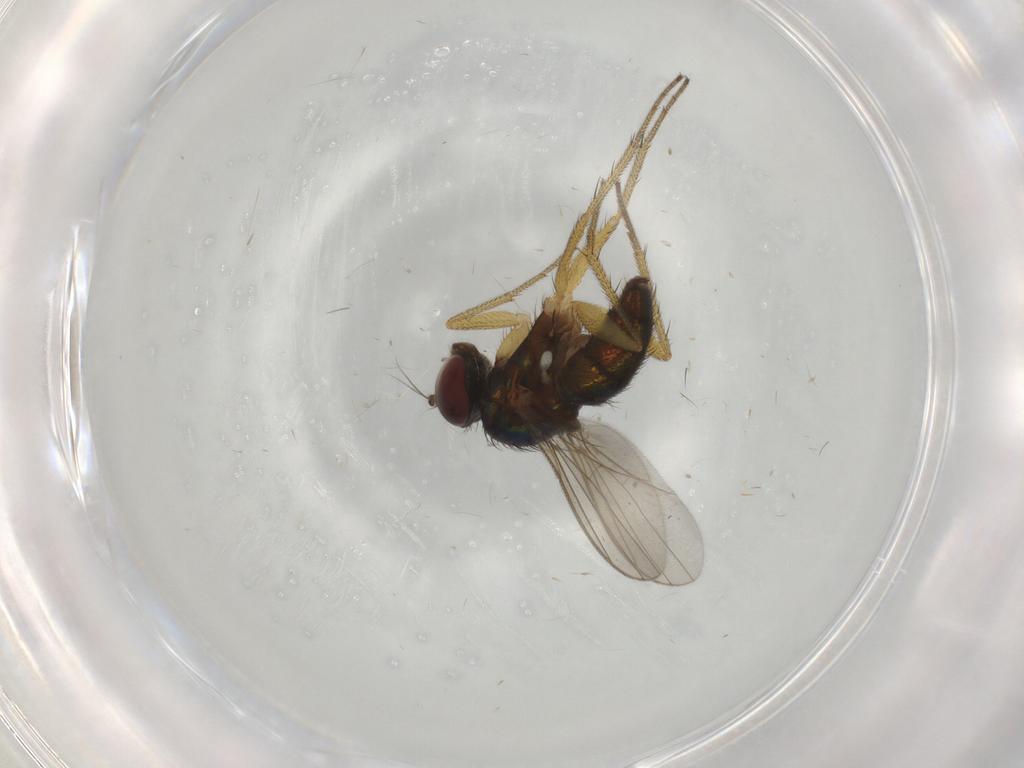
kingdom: Animalia
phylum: Arthropoda
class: Insecta
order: Diptera
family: Dolichopodidae
